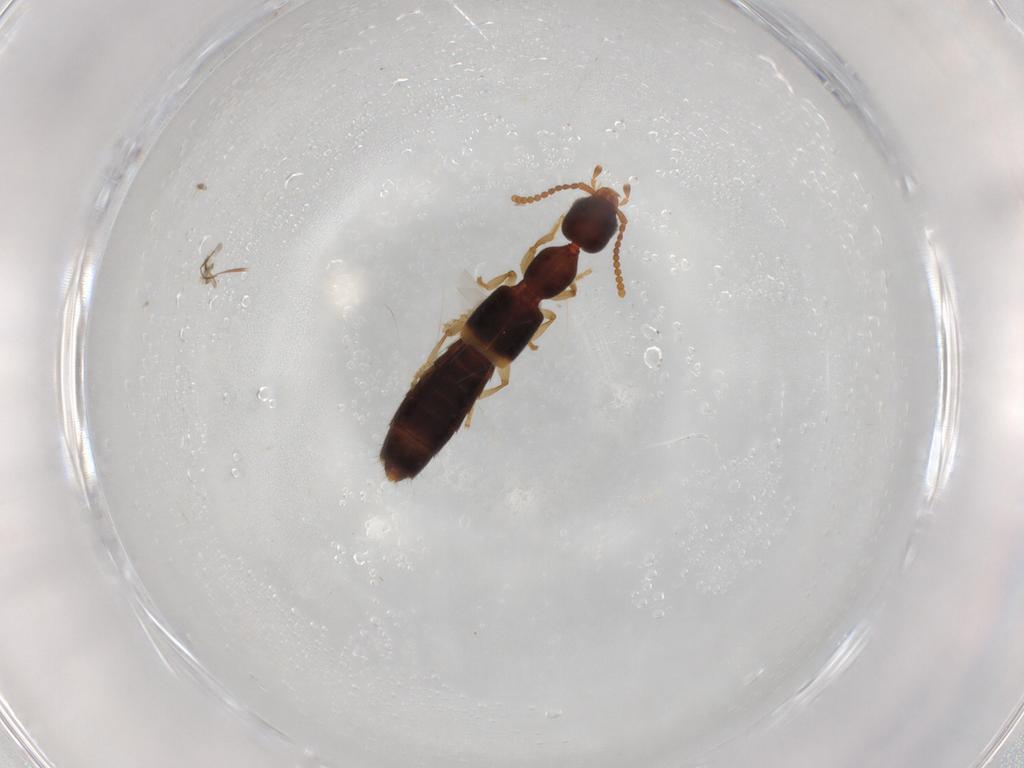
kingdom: Animalia
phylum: Arthropoda
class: Insecta
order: Coleoptera
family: Staphylinidae
